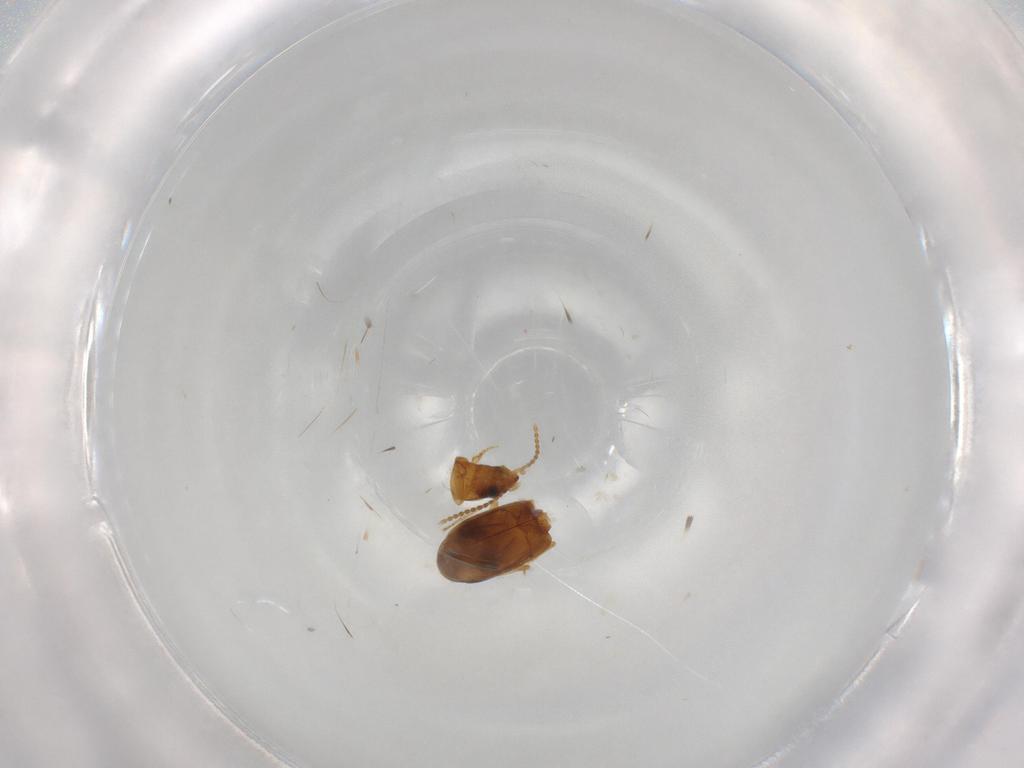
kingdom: Animalia
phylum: Arthropoda
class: Insecta
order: Coleoptera
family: Carabidae
